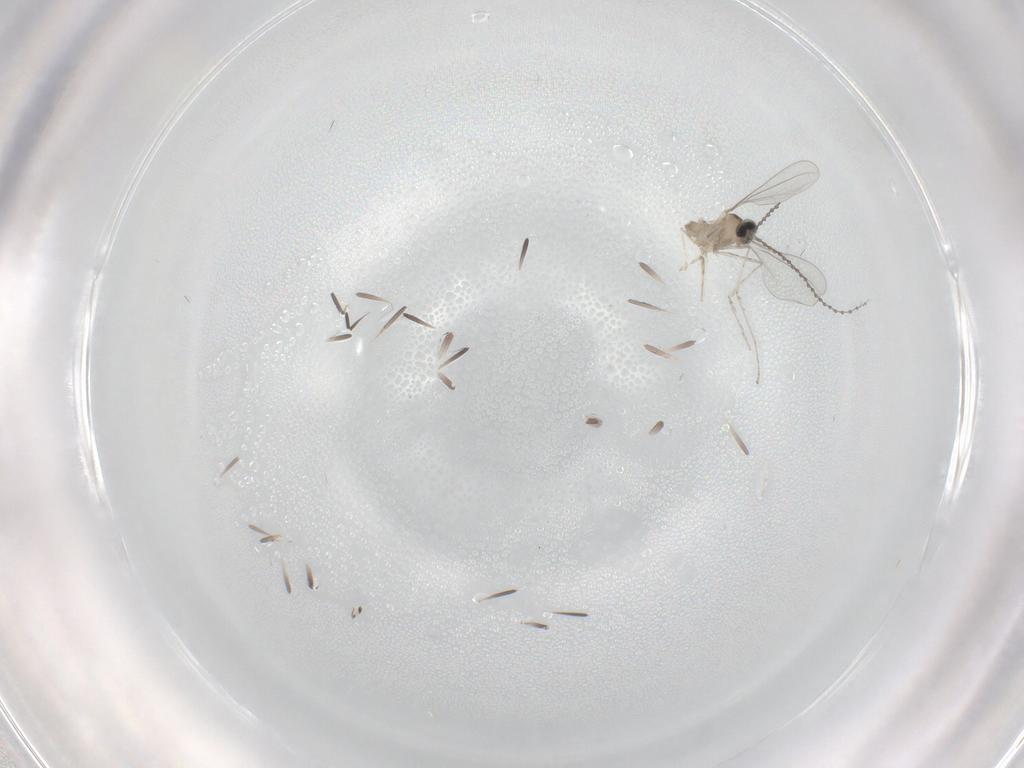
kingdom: Animalia
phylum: Arthropoda
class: Insecta
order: Diptera
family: Cecidomyiidae
